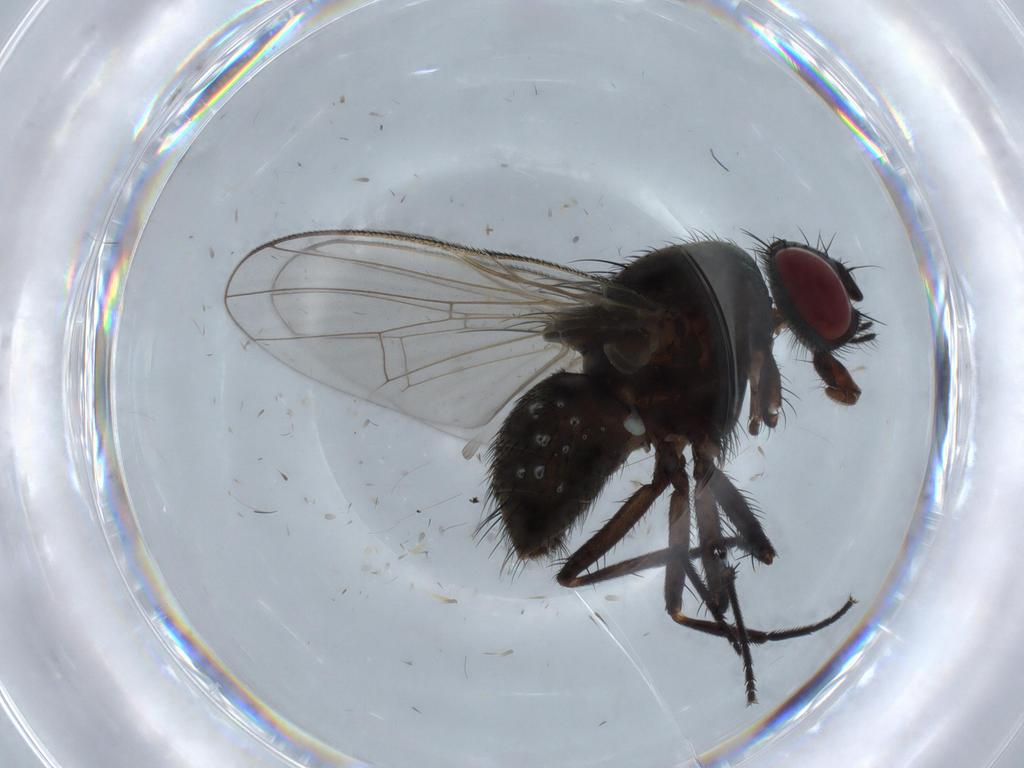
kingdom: Animalia
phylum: Arthropoda
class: Insecta
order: Diptera
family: Muscidae
